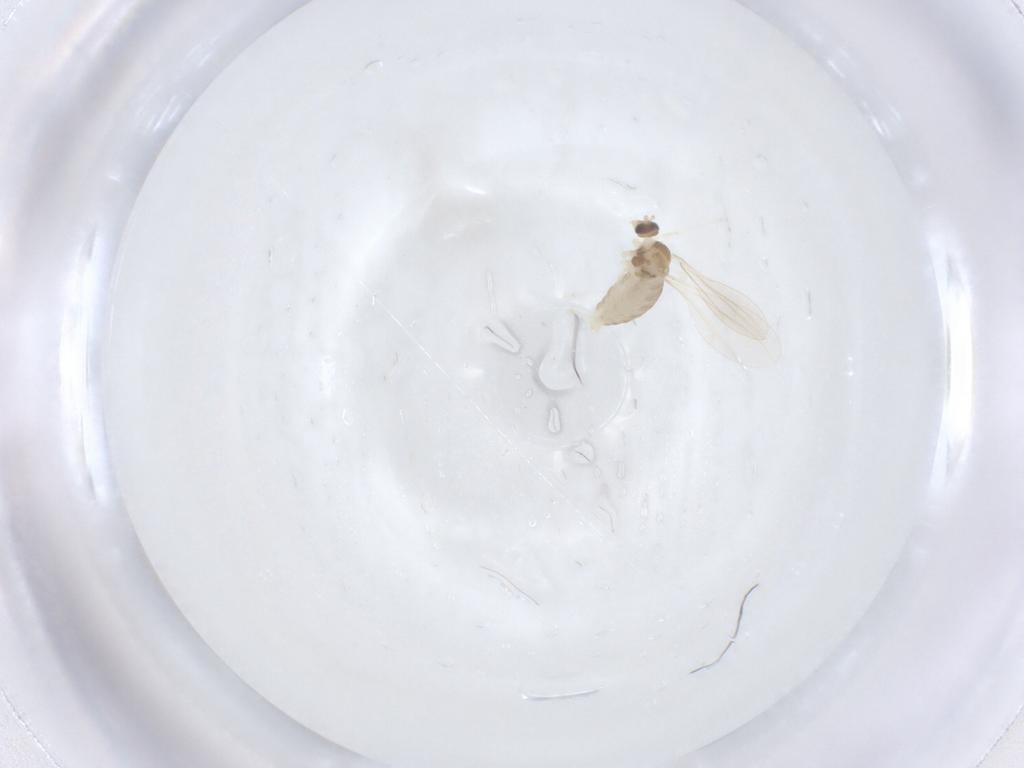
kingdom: Animalia
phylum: Arthropoda
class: Insecta
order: Diptera
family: Cecidomyiidae
